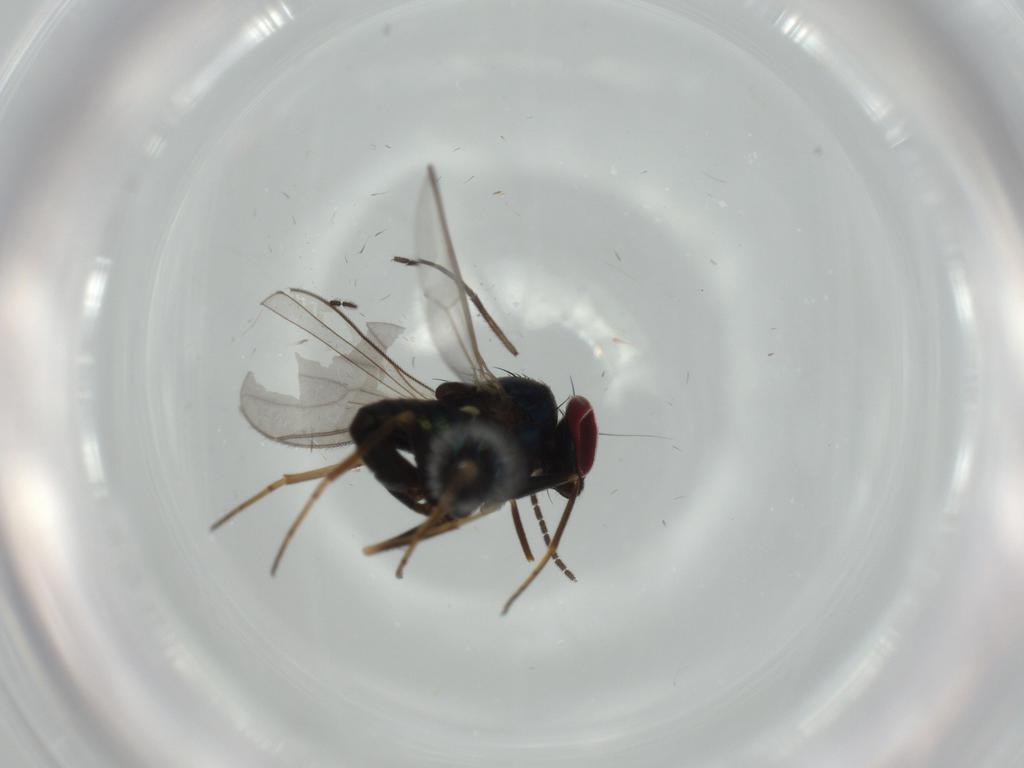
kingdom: Animalia
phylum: Arthropoda
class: Insecta
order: Diptera
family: Dolichopodidae
